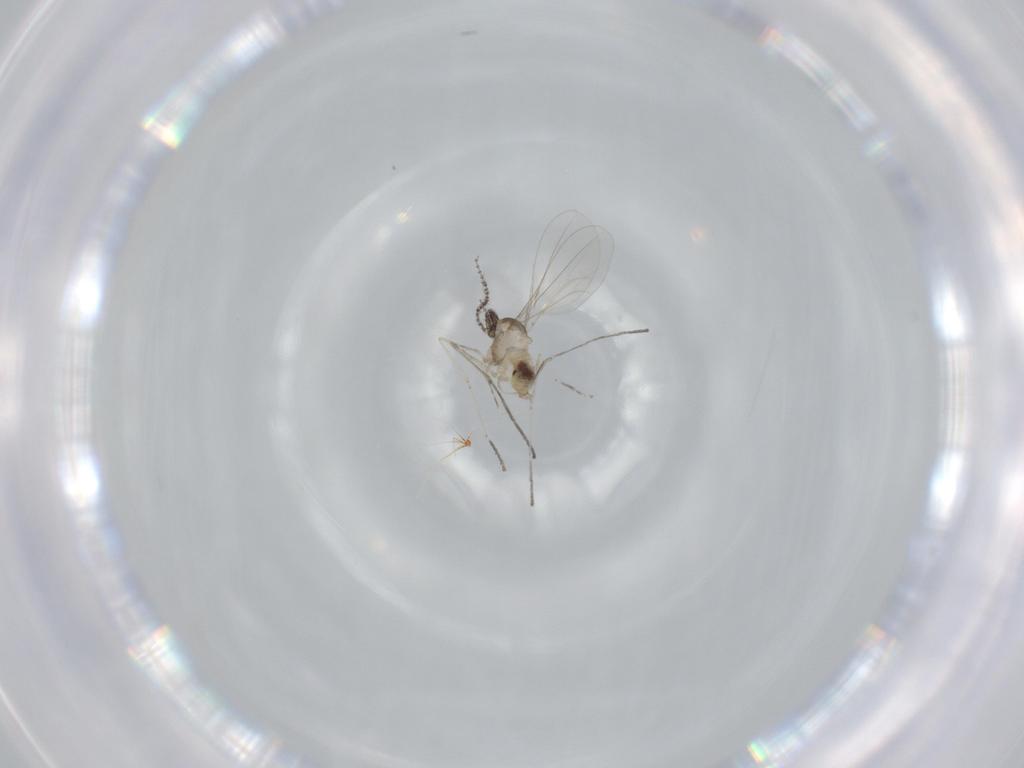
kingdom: Animalia
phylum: Arthropoda
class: Insecta
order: Diptera
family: Cecidomyiidae
